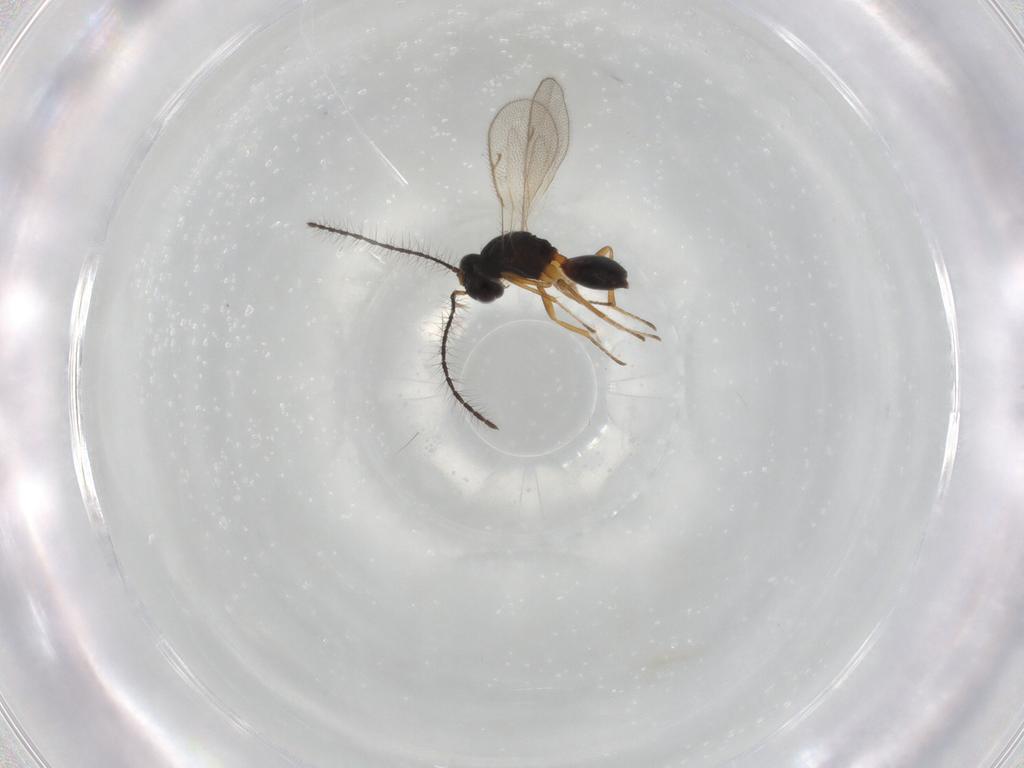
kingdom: Animalia
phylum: Arthropoda
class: Insecta
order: Hymenoptera
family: Diparidae
